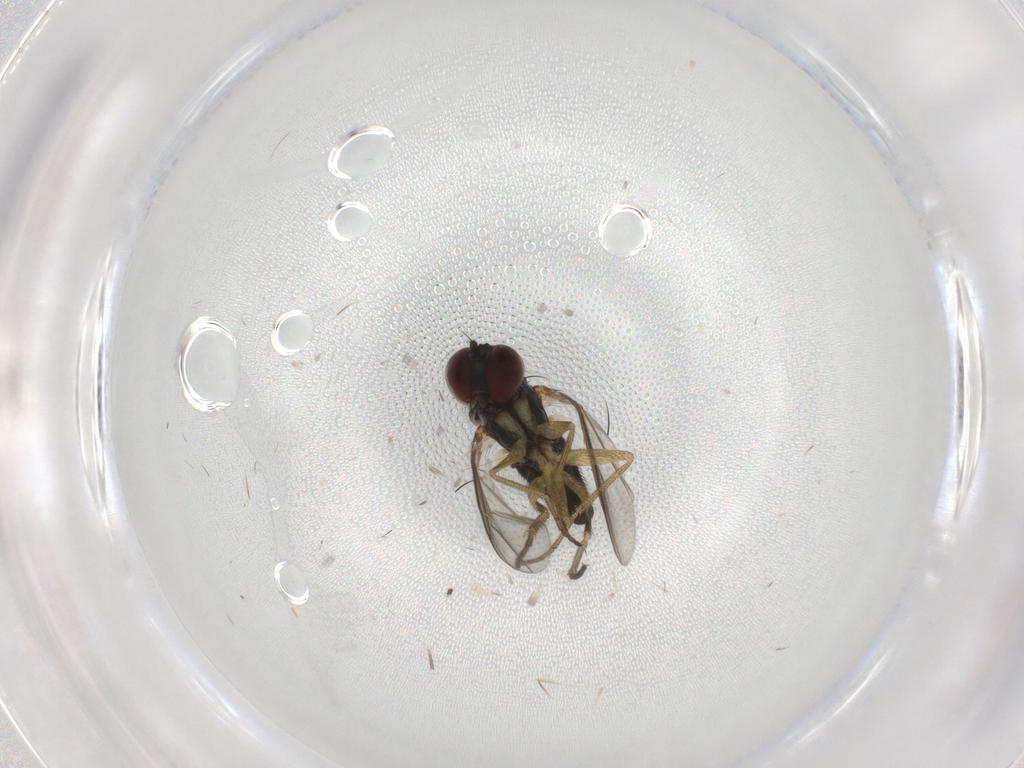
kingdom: Animalia
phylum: Arthropoda
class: Insecta
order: Diptera
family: Dolichopodidae
